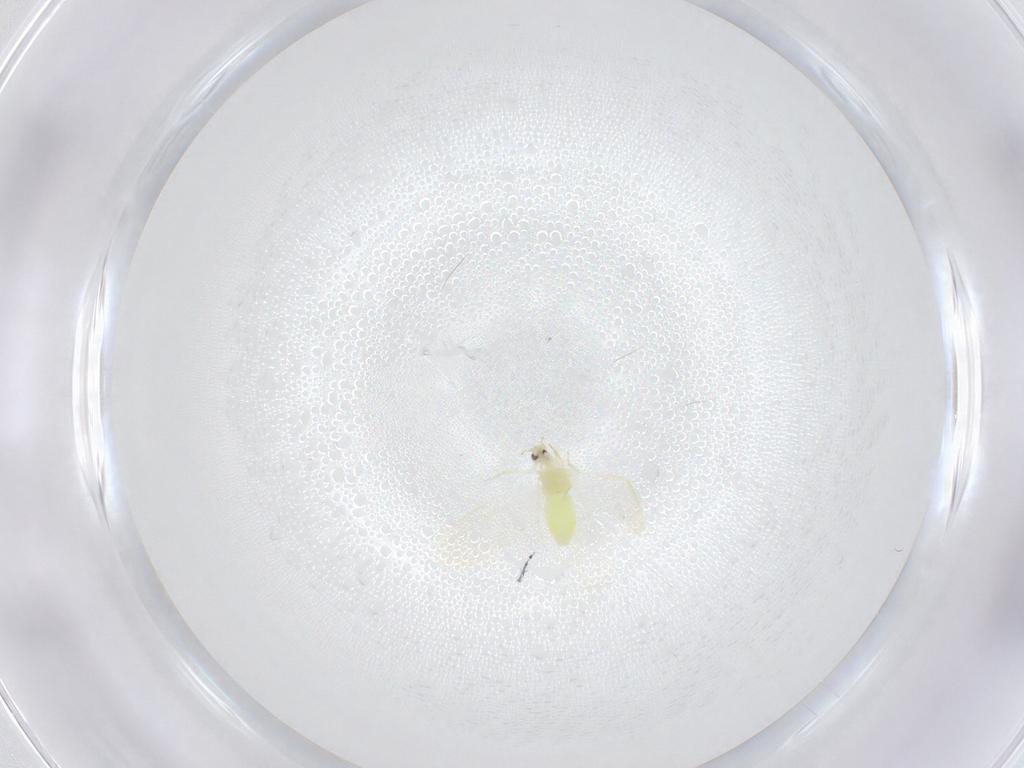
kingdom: Animalia
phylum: Arthropoda
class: Insecta
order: Hemiptera
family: Aleyrodidae
